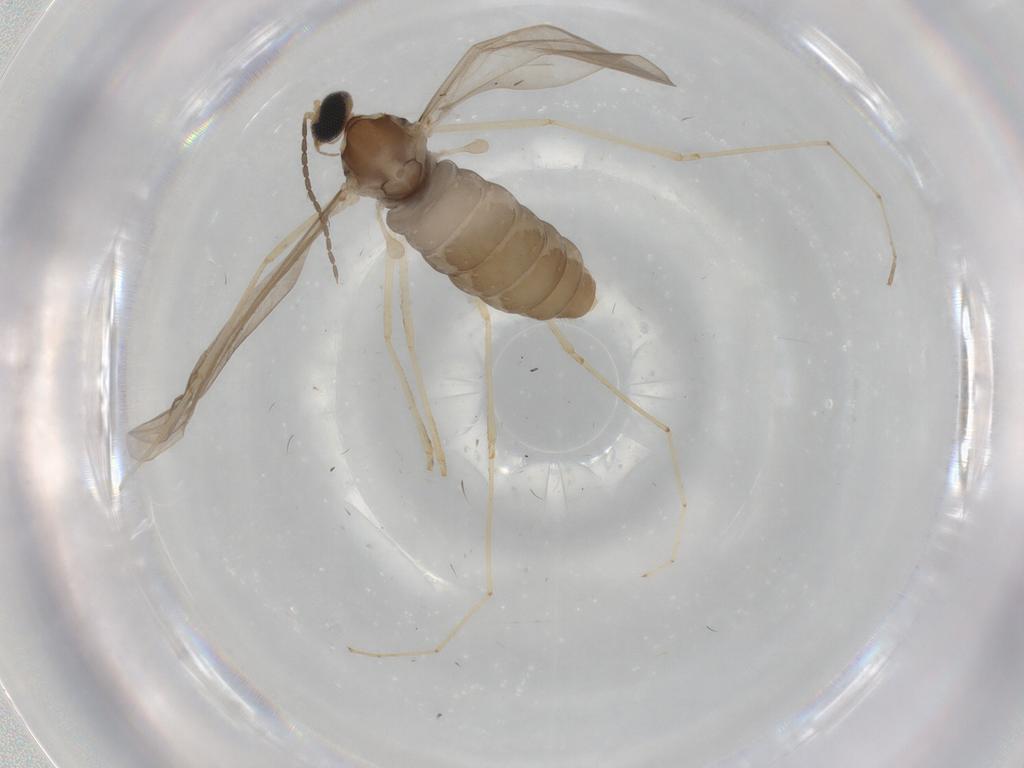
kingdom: Animalia
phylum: Arthropoda
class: Insecta
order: Diptera
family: Cecidomyiidae
